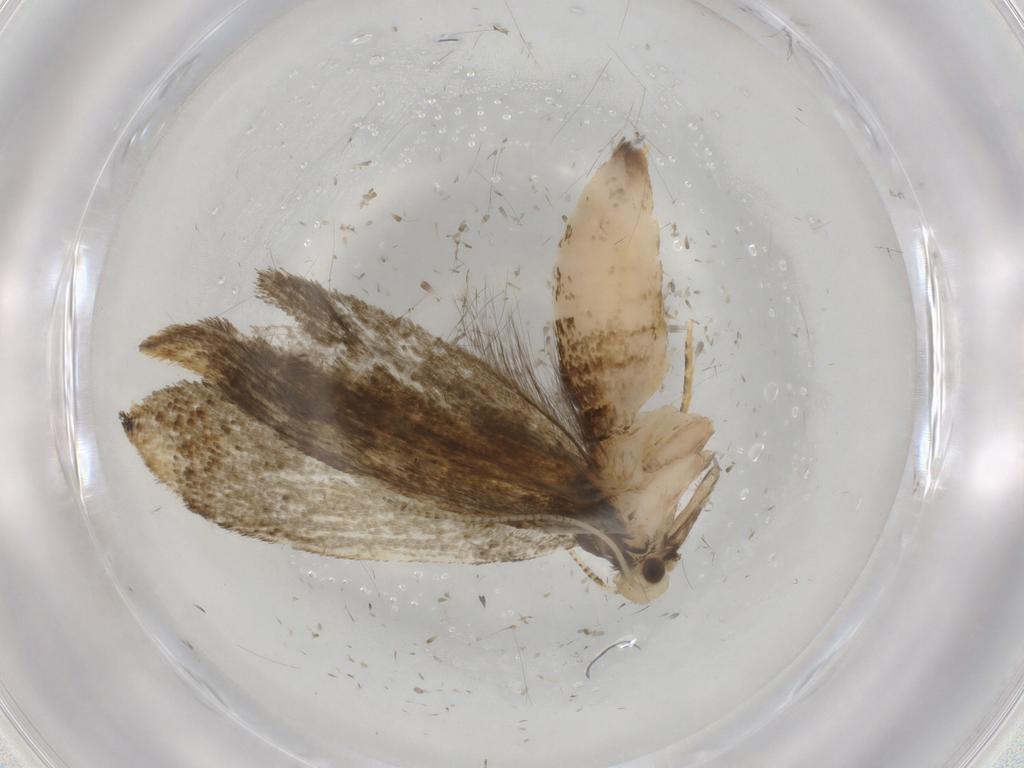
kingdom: Animalia
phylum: Arthropoda
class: Insecta
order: Lepidoptera
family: Pieridae
